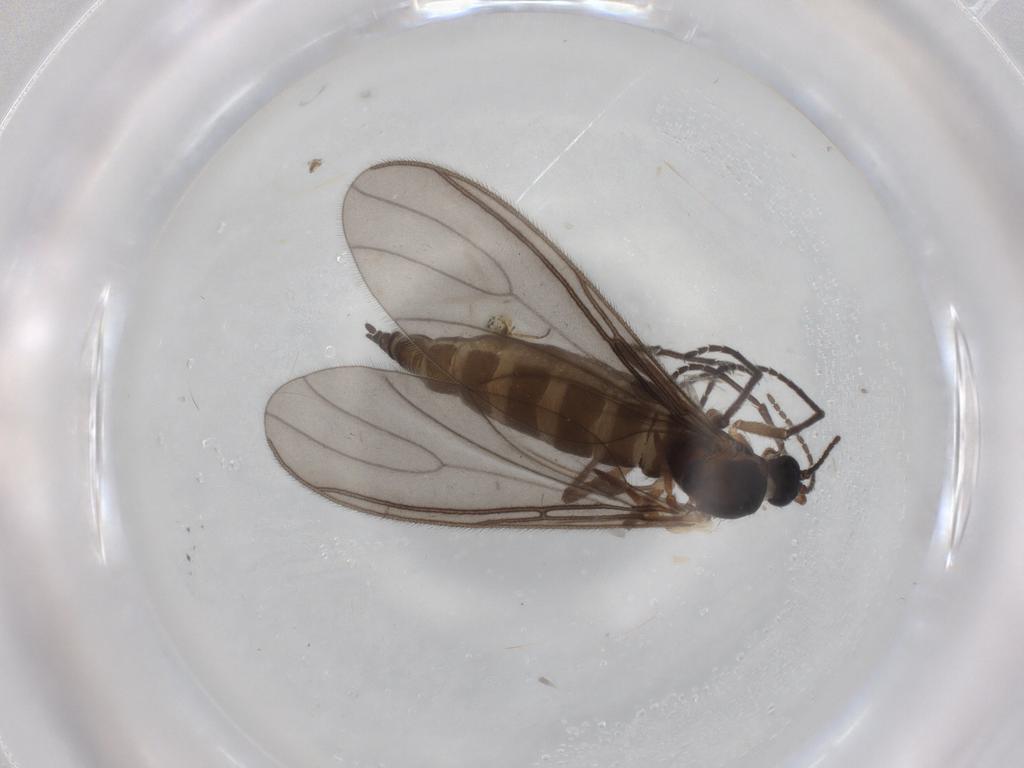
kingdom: Animalia
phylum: Arthropoda
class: Insecta
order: Diptera
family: Sciaridae
